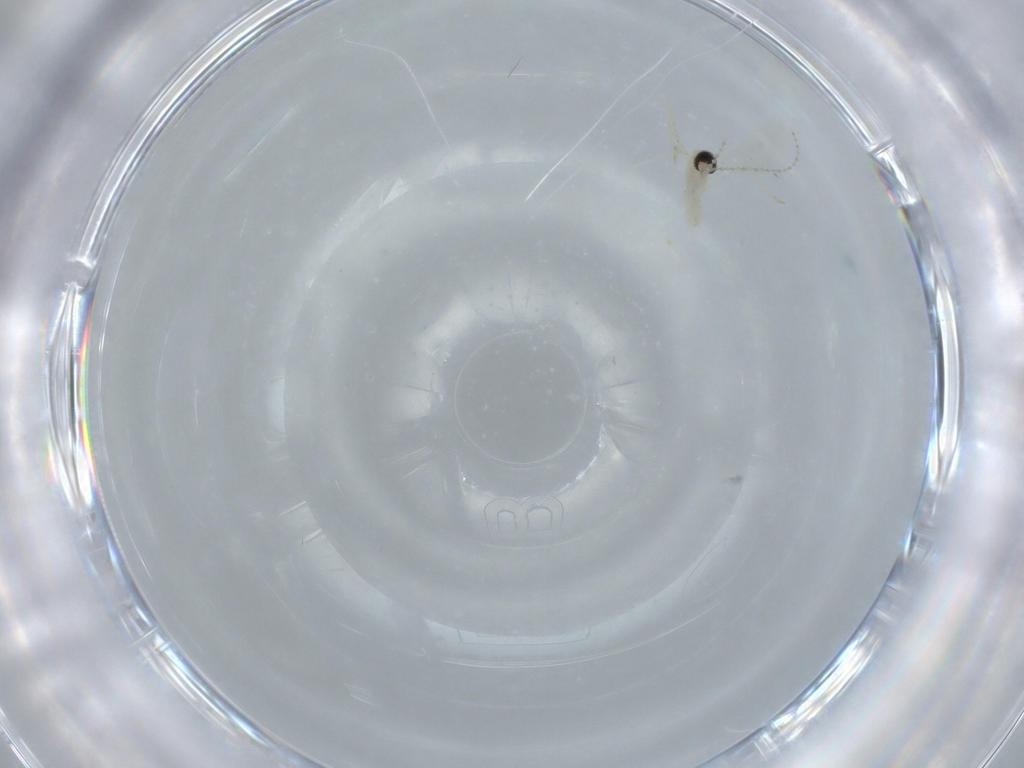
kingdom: Animalia
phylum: Arthropoda
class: Insecta
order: Diptera
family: Cecidomyiidae
